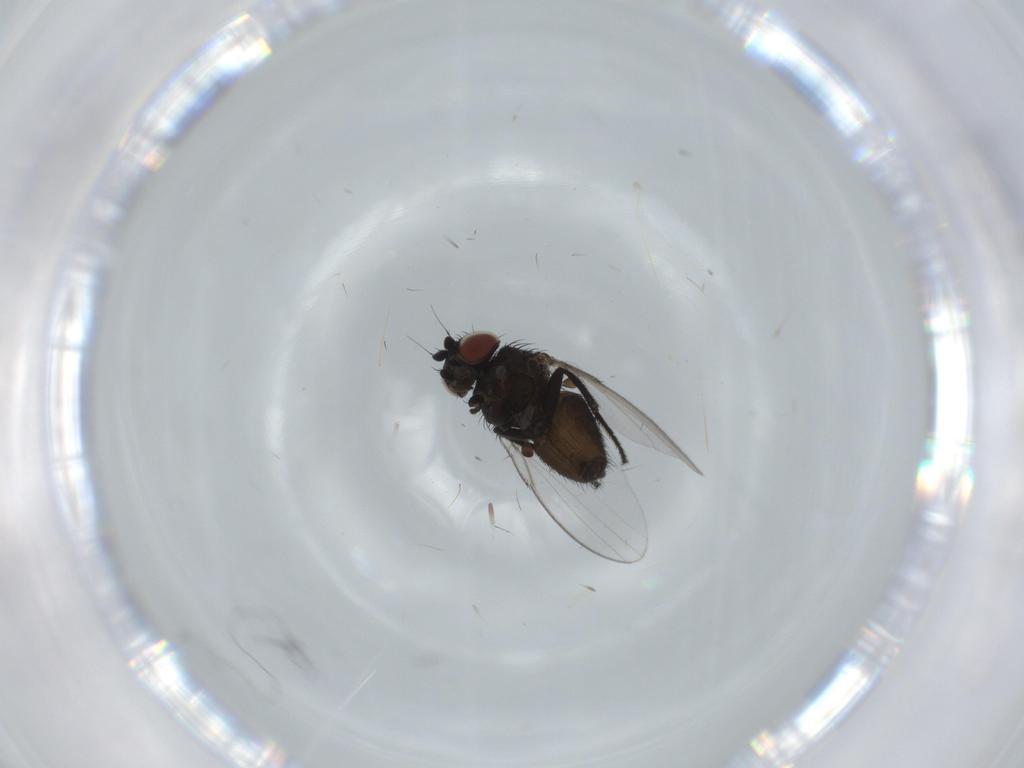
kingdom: Animalia
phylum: Arthropoda
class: Insecta
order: Diptera
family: Milichiidae
